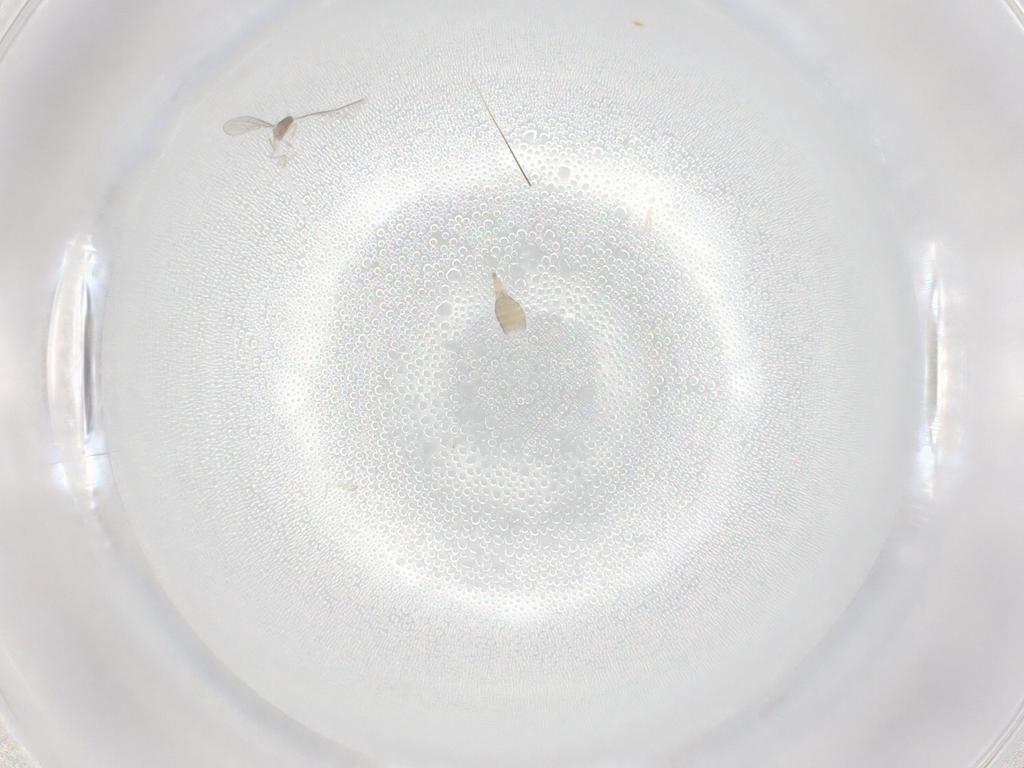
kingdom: Animalia
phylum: Arthropoda
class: Insecta
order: Diptera
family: Cecidomyiidae
